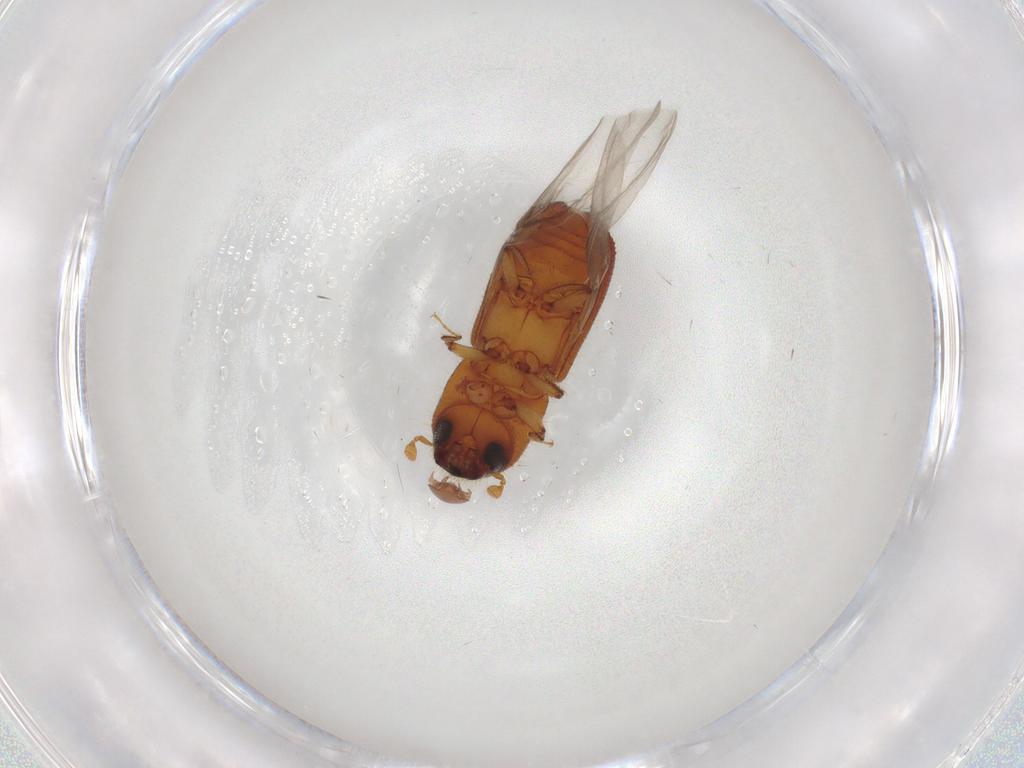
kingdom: Animalia
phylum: Arthropoda
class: Insecta
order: Coleoptera
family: Curculionidae
